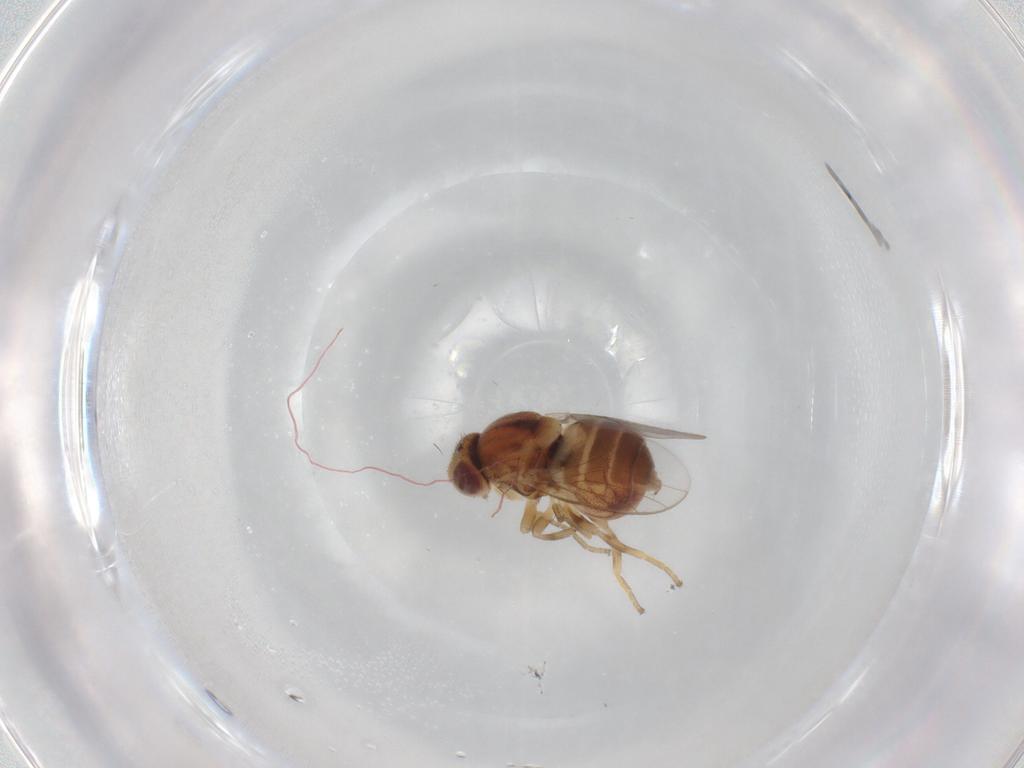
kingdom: Animalia
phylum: Arthropoda
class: Insecta
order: Diptera
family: Chloropidae
